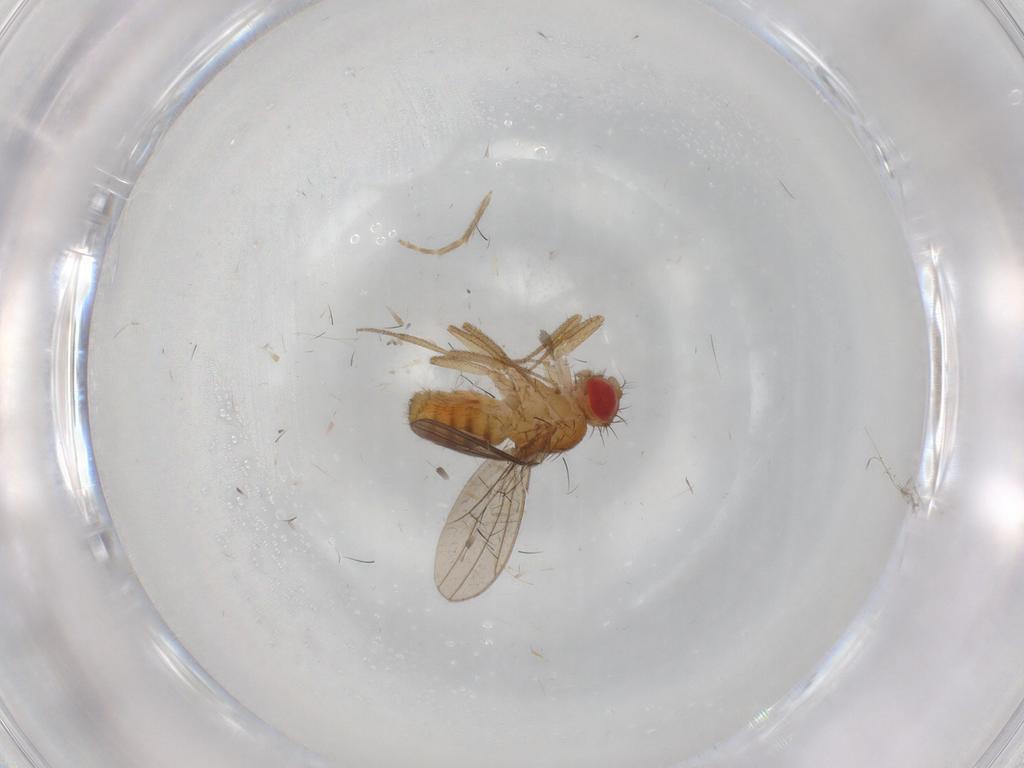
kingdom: Animalia
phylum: Arthropoda
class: Insecta
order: Diptera
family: Drosophilidae
